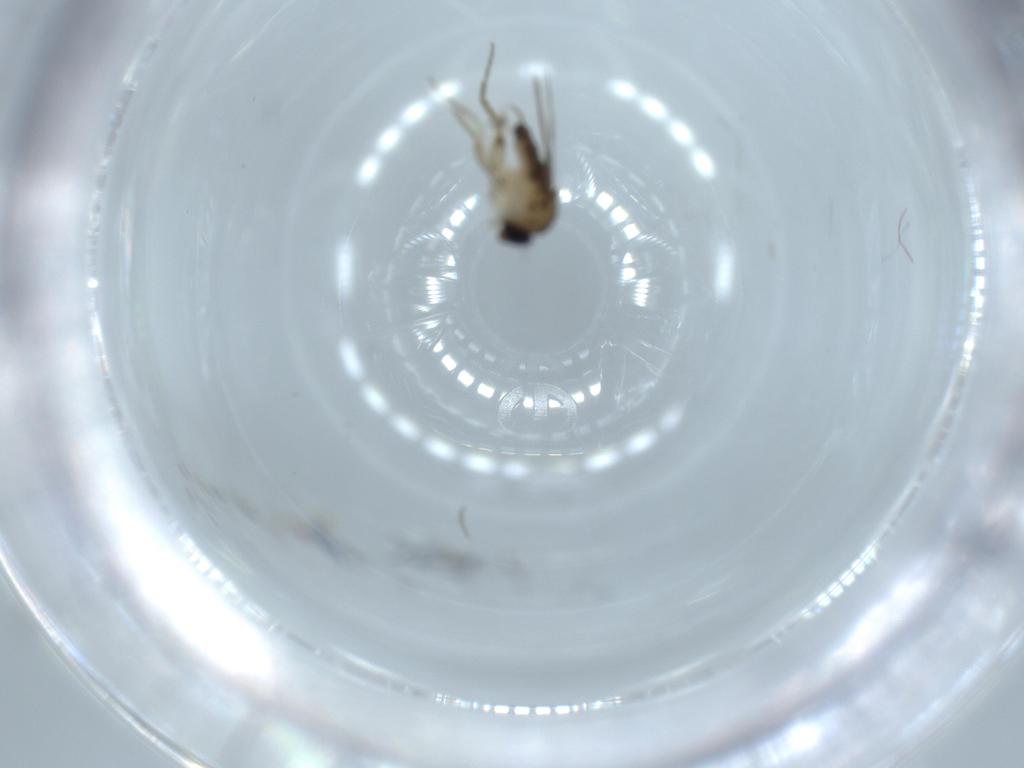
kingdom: Animalia
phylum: Arthropoda
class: Insecta
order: Diptera
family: Phoridae
